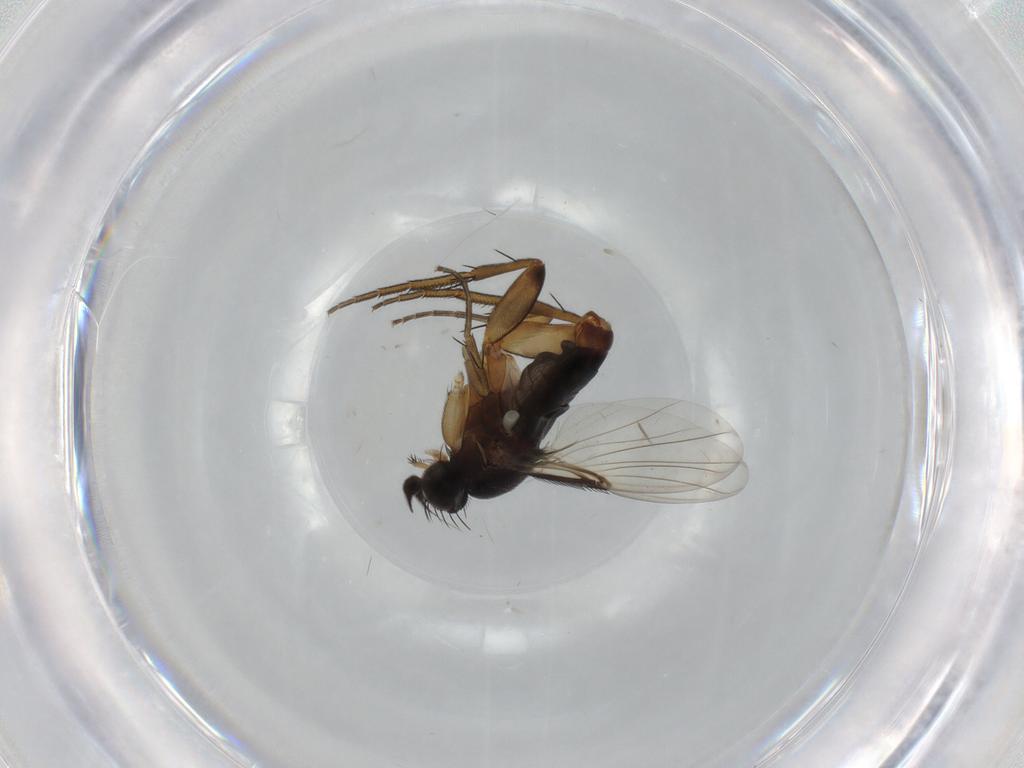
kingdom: Animalia
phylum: Arthropoda
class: Insecta
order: Diptera
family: Phoridae
